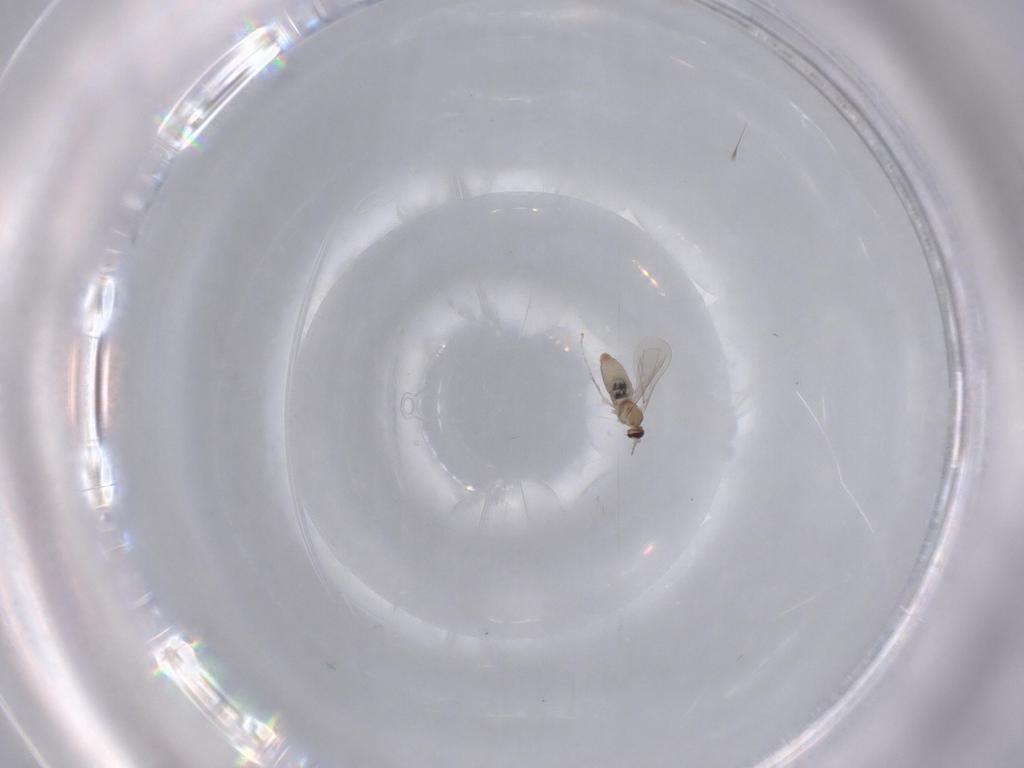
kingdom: Animalia
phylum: Arthropoda
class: Insecta
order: Diptera
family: Cecidomyiidae
